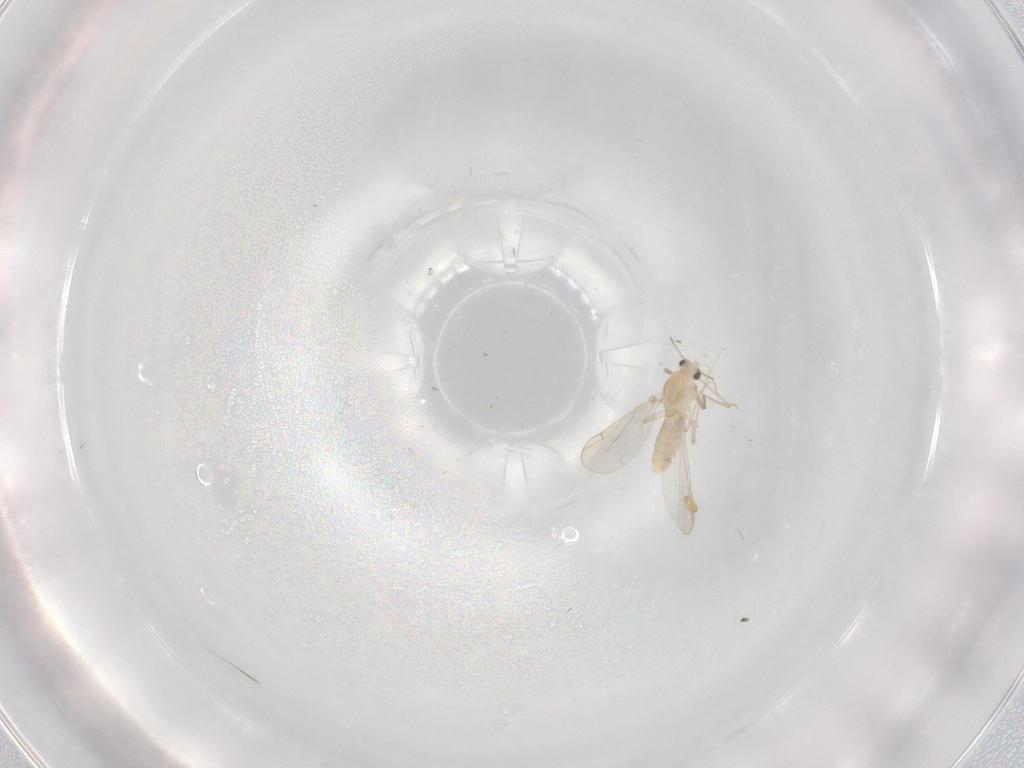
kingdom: Animalia
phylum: Arthropoda
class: Insecta
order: Diptera
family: Chironomidae
